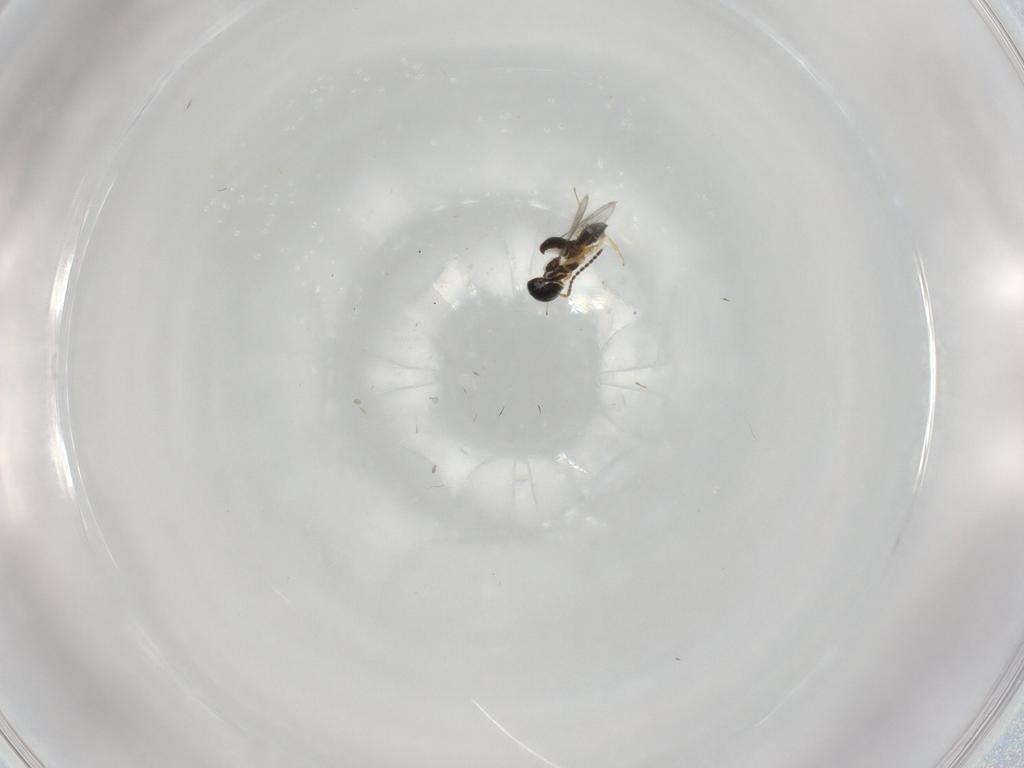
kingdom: Animalia
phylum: Arthropoda
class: Insecta
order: Hymenoptera
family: Scelionidae
